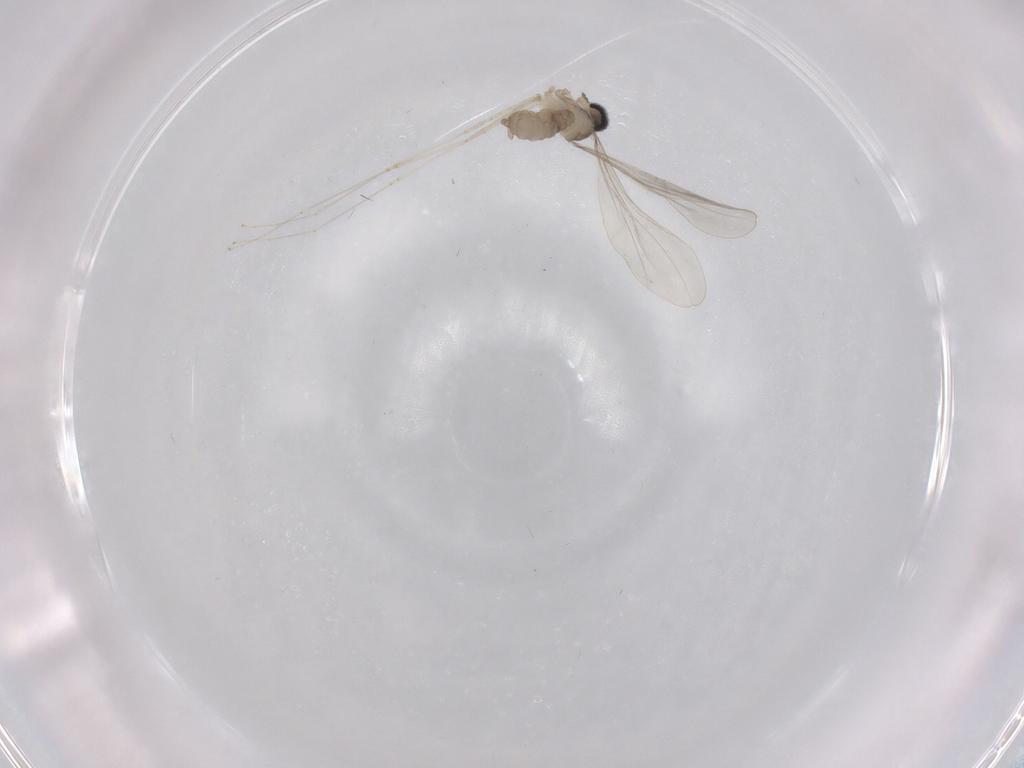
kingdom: Animalia
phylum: Arthropoda
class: Insecta
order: Diptera
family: Cecidomyiidae
